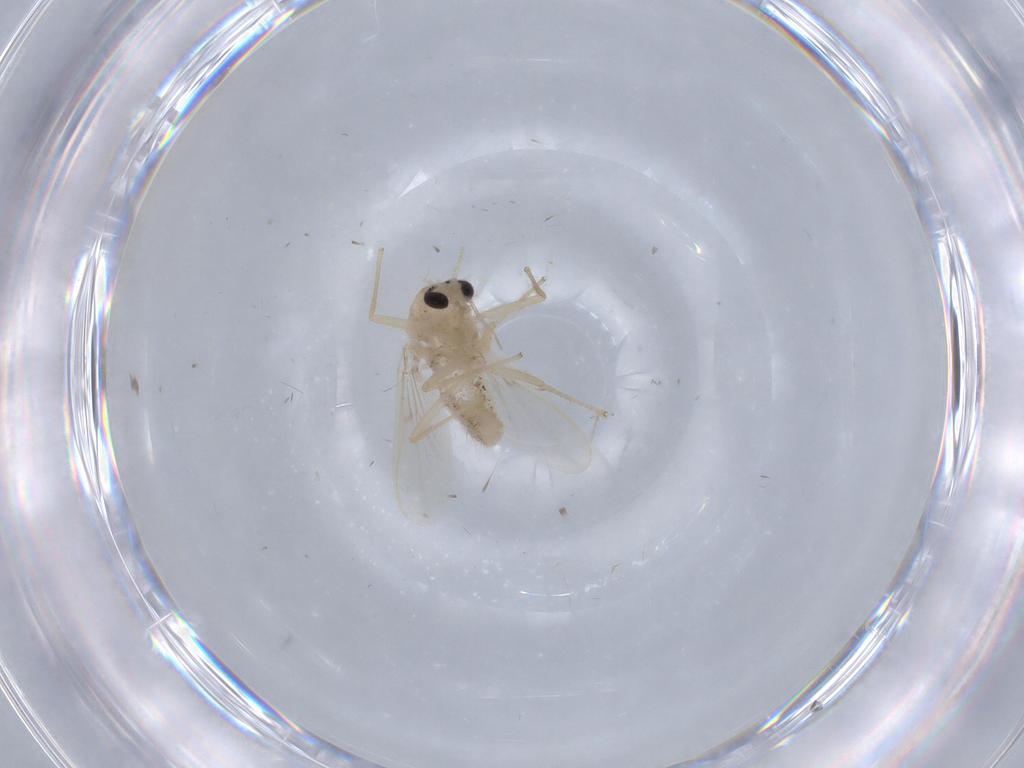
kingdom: Animalia
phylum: Arthropoda
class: Insecta
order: Diptera
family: Chironomidae
